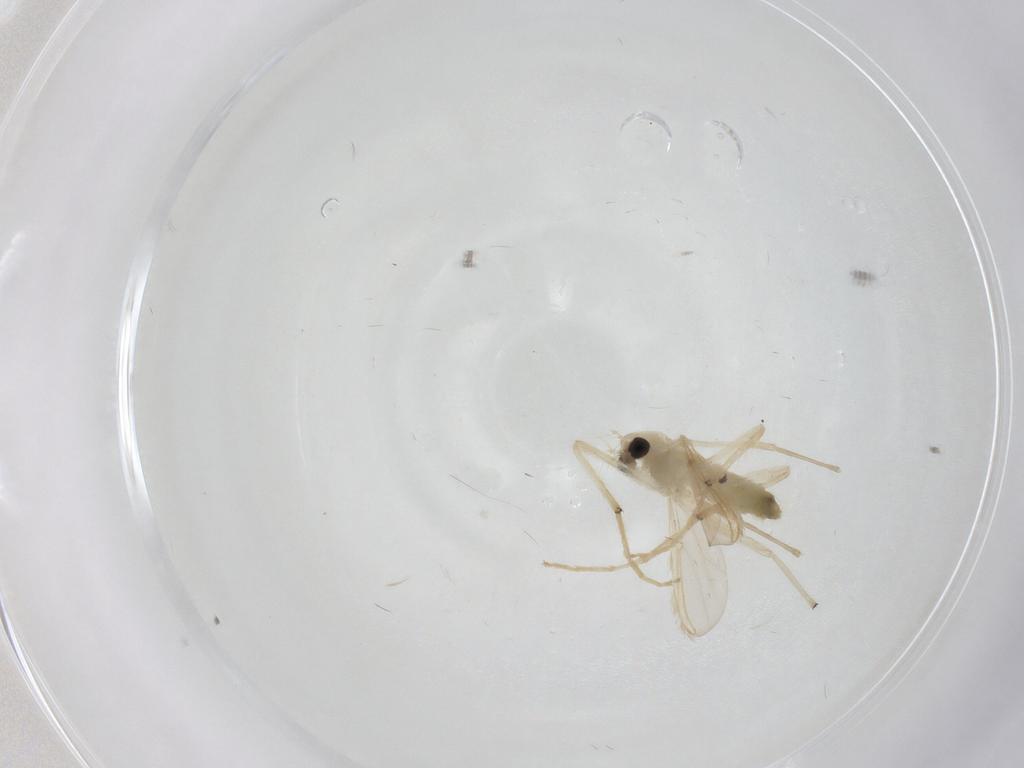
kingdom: Animalia
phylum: Arthropoda
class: Insecta
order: Diptera
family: Chironomidae
